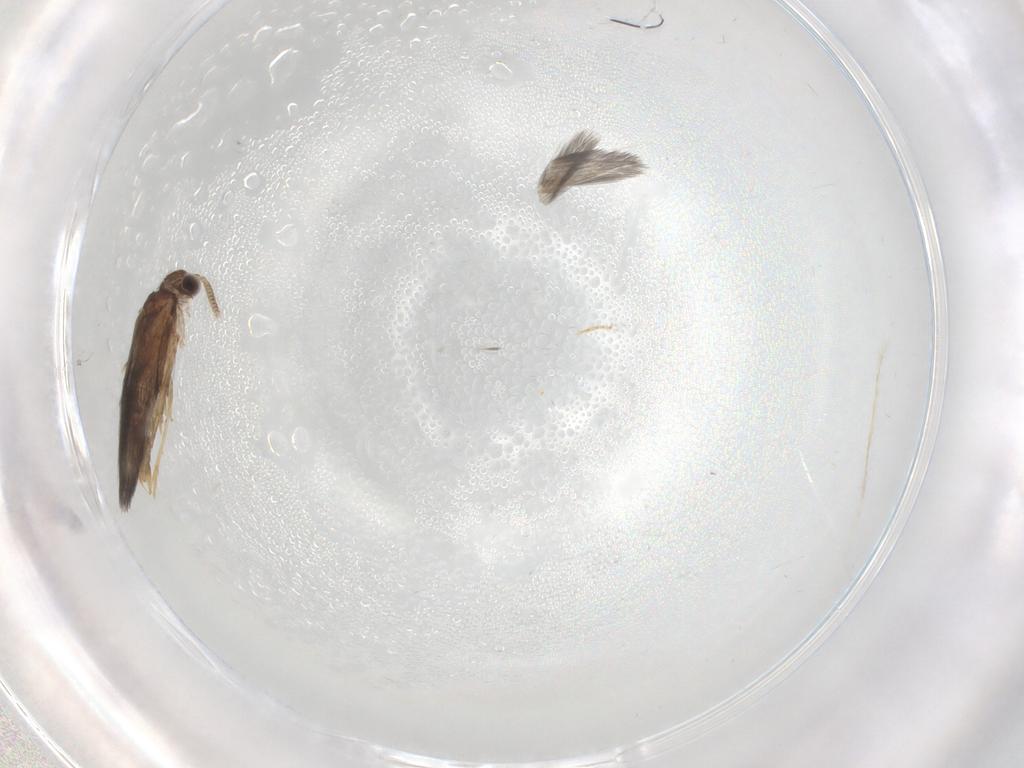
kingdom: Animalia
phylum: Arthropoda
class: Insecta
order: Trichoptera
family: Hydroptilidae
